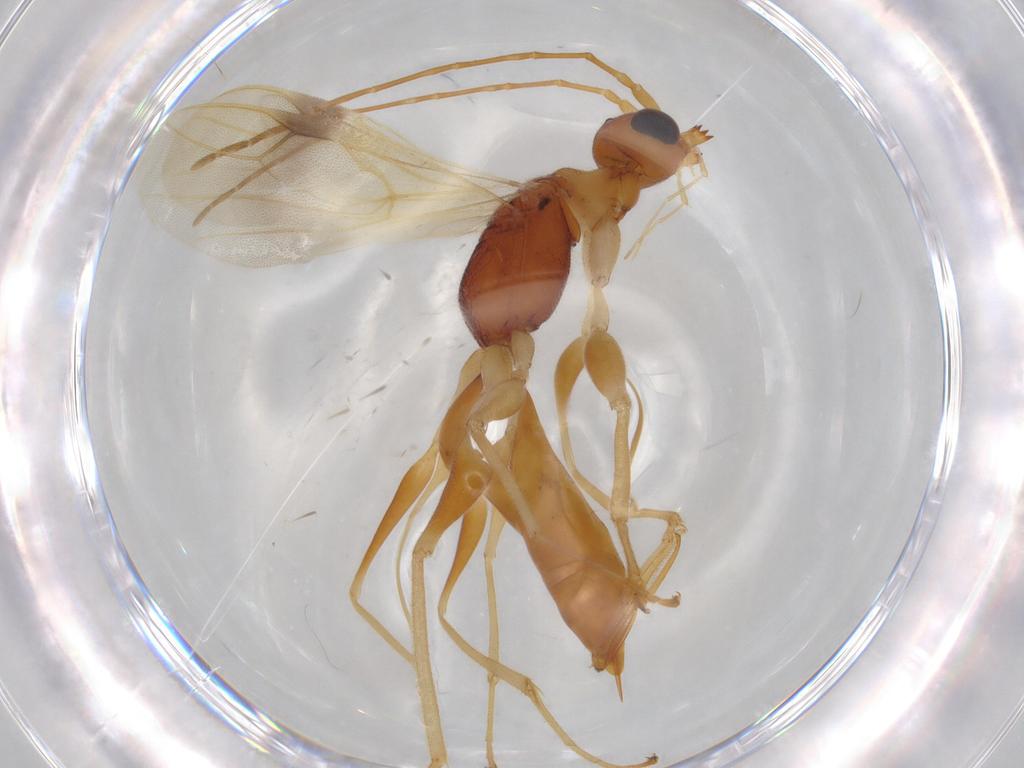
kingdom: Animalia
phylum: Arthropoda
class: Insecta
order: Hymenoptera
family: Dryinidae
